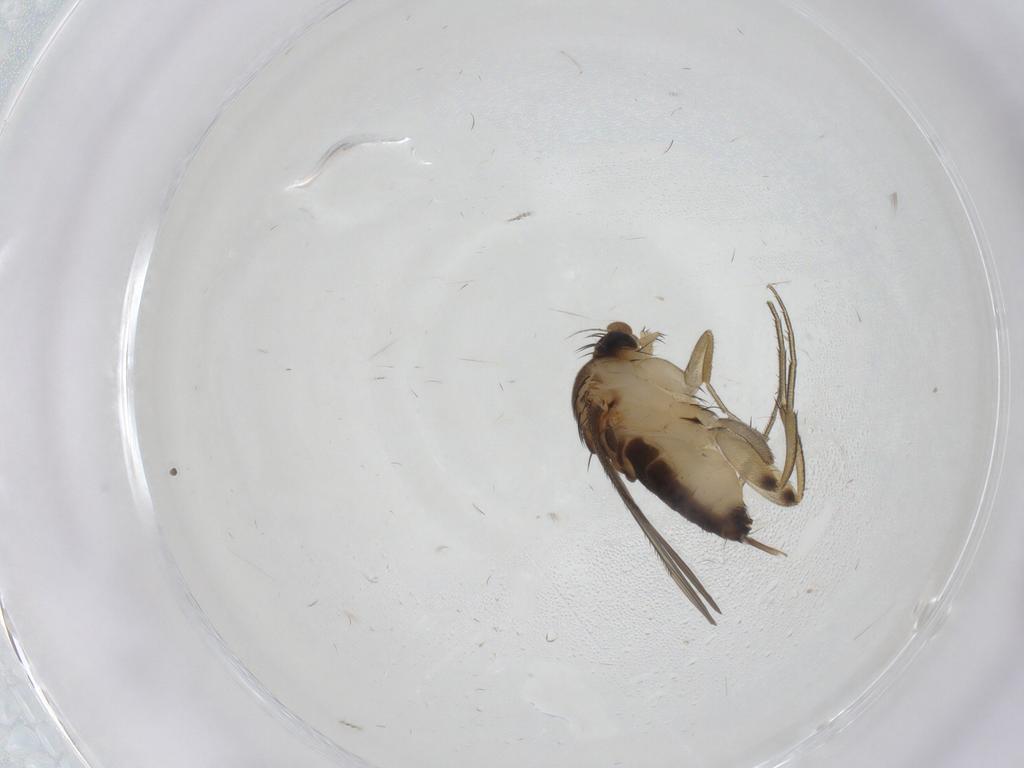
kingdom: Animalia
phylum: Arthropoda
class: Insecta
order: Diptera
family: Phoridae
